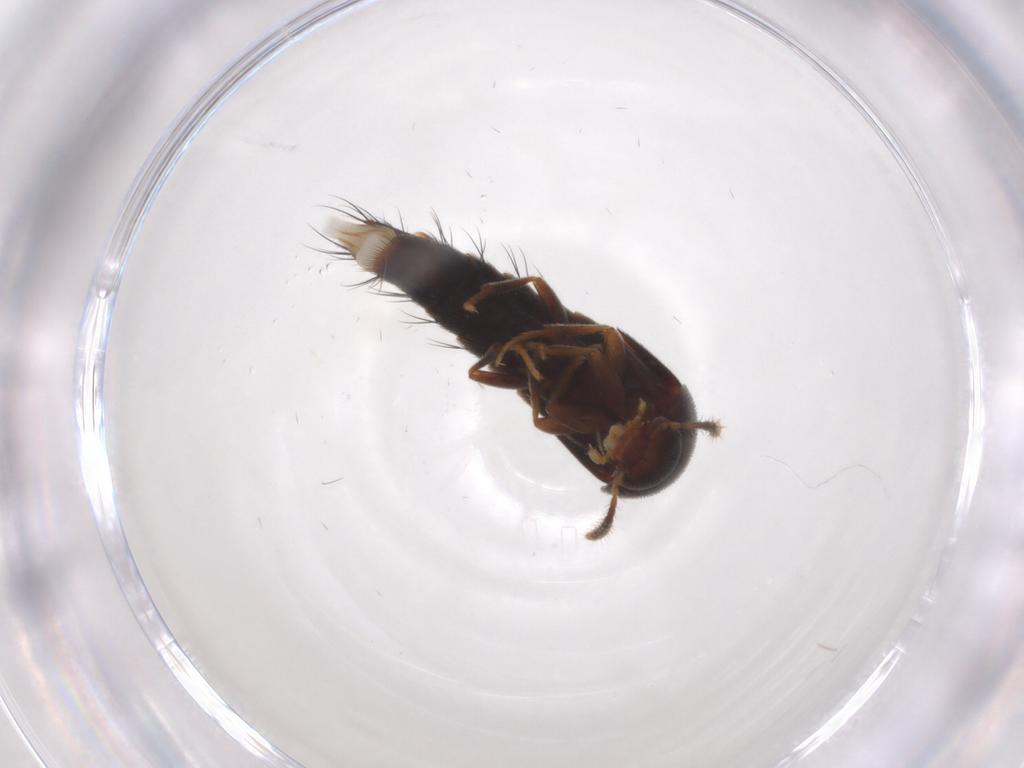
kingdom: Animalia
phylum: Arthropoda
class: Insecta
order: Coleoptera
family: Staphylinidae
